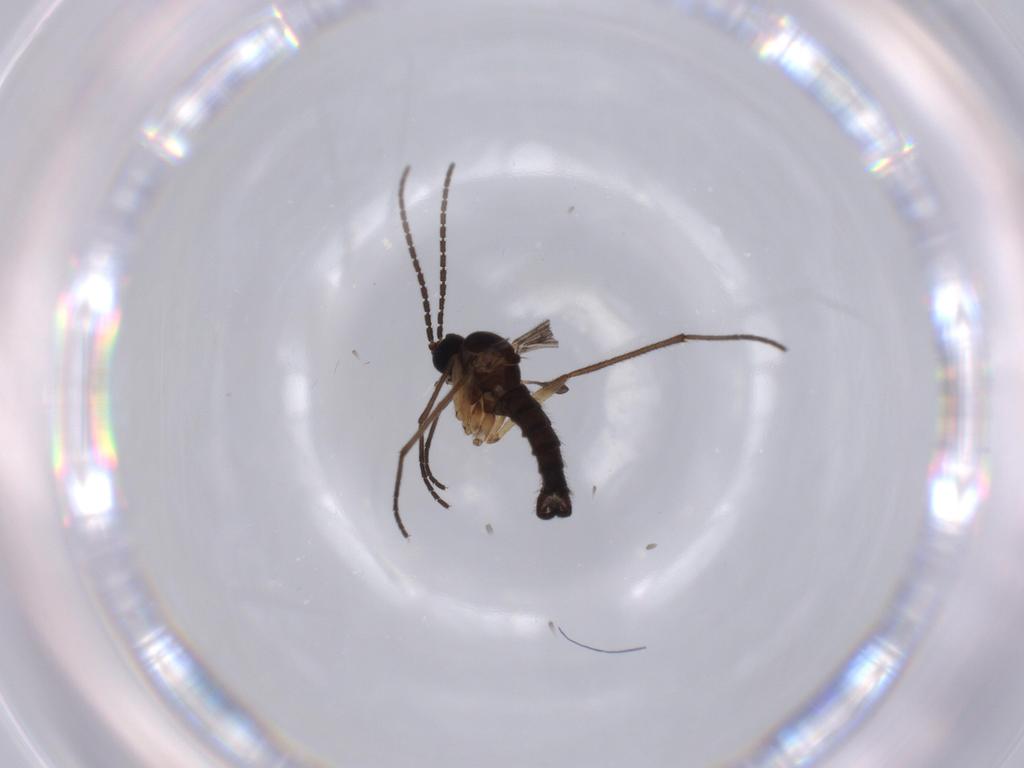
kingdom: Animalia
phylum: Arthropoda
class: Insecta
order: Diptera
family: Sciaridae
